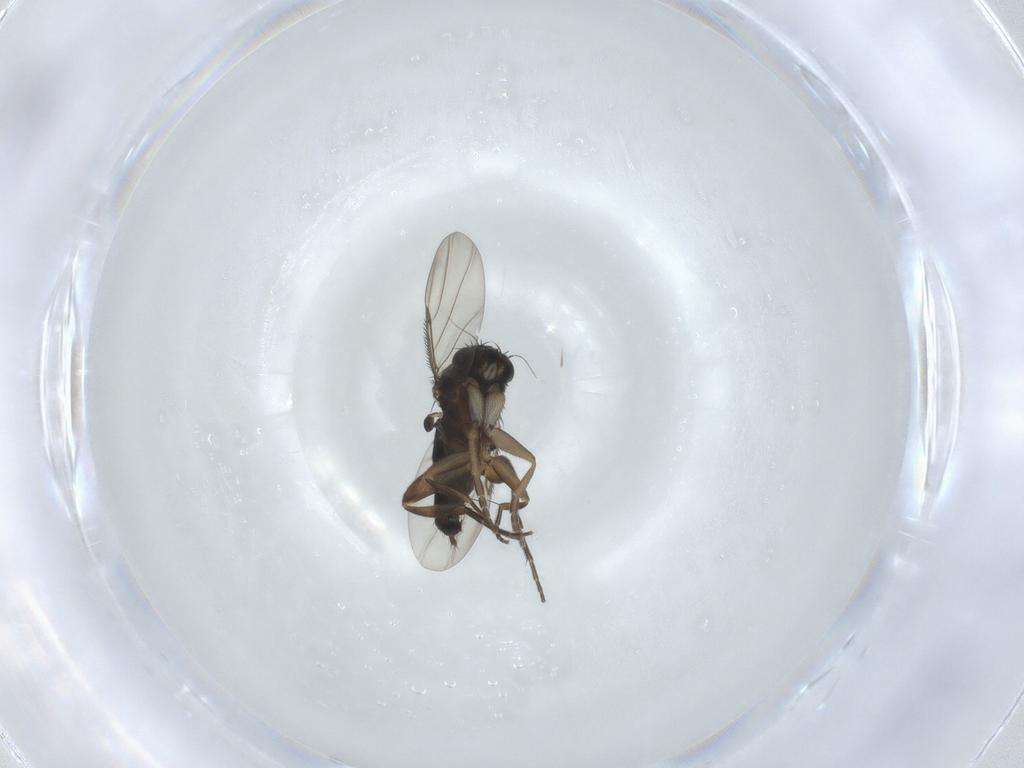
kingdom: Animalia
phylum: Arthropoda
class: Insecta
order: Diptera
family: Phoridae
